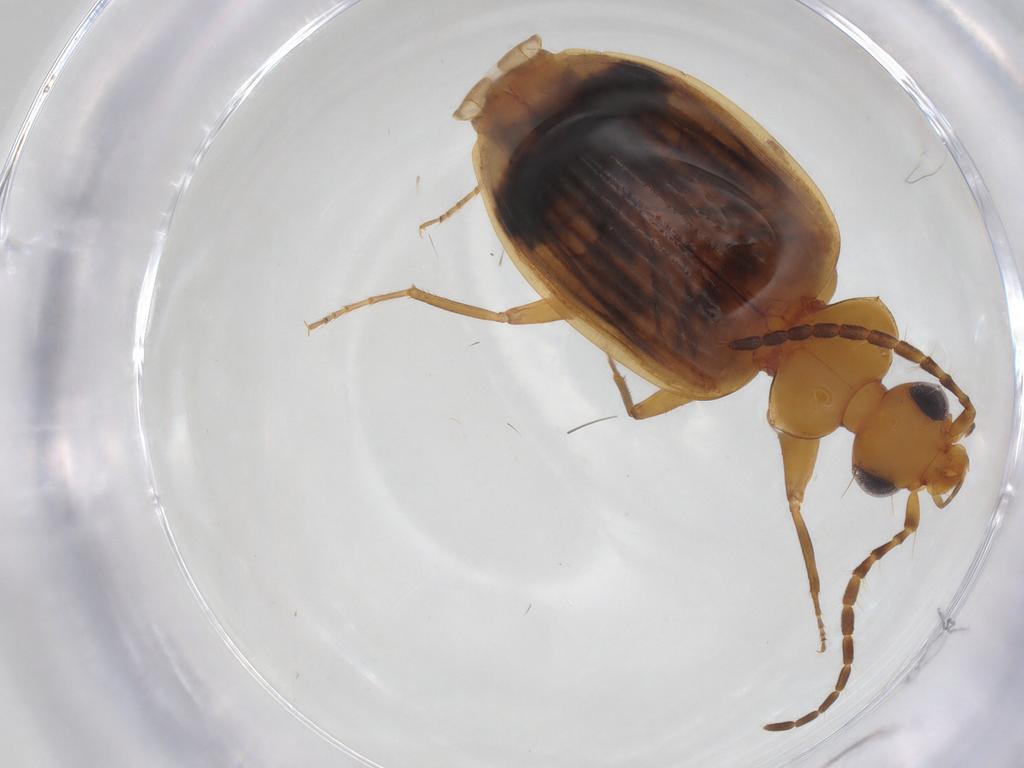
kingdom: Animalia
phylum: Arthropoda
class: Insecta
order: Coleoptera
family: Carabidae
